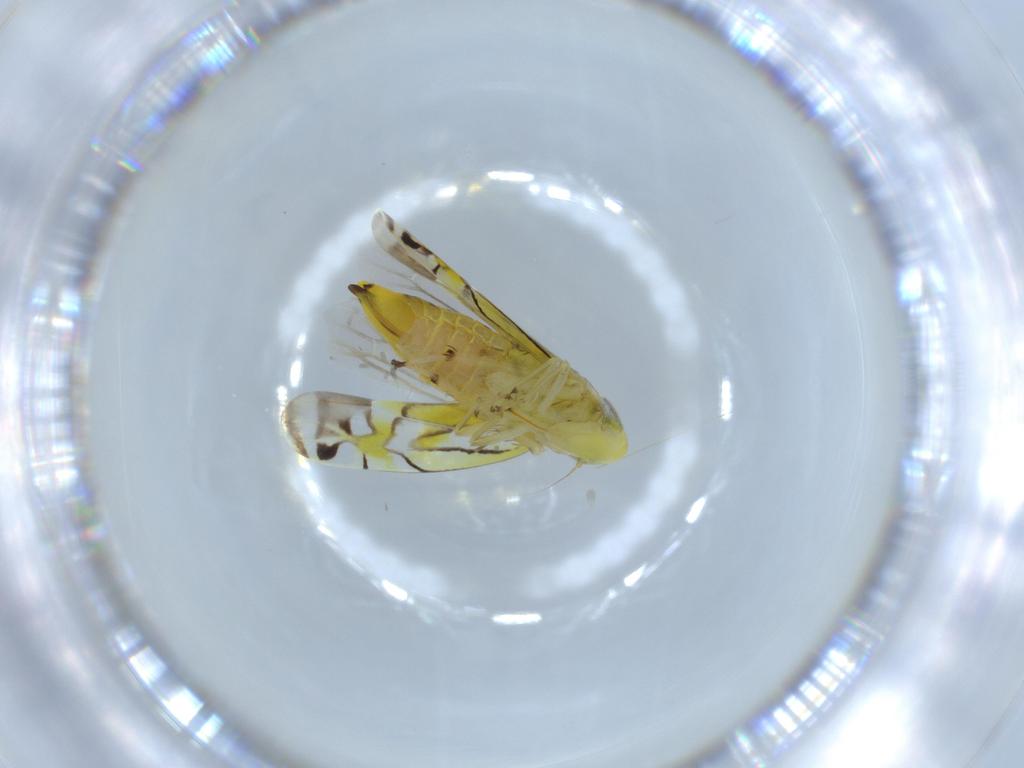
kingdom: Animalia
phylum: Arthropoda
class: Insecta
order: Hemiptera
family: Cicadellidae
